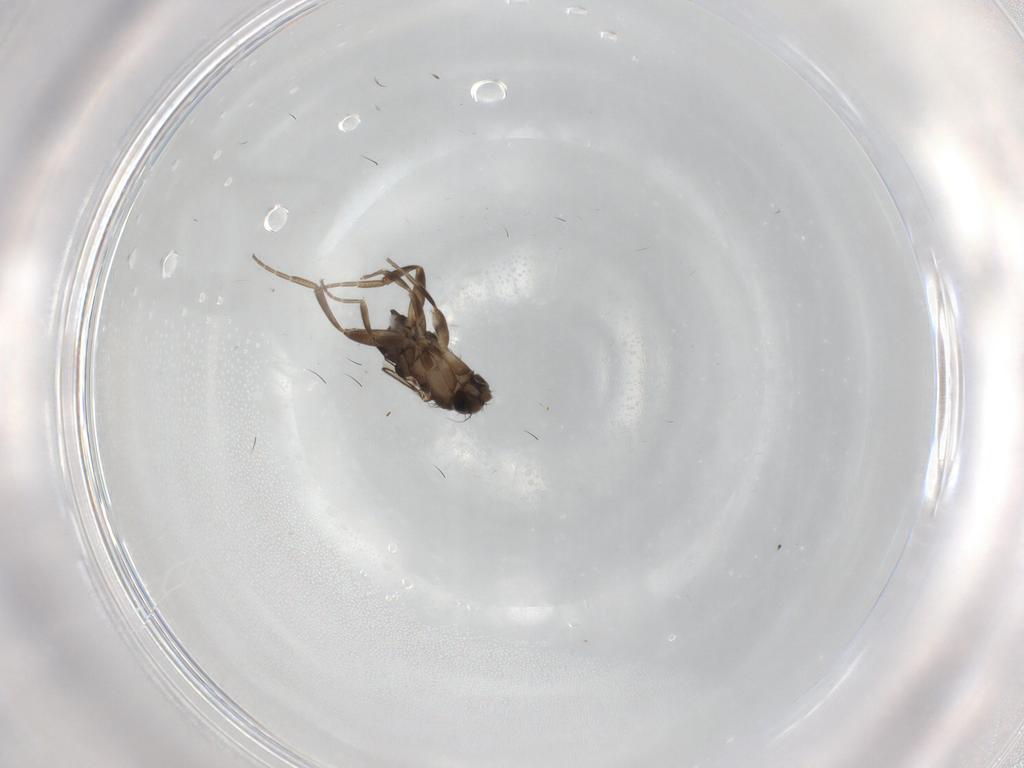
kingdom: Animalia
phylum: Arthropoda
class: Insecta
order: Diptera
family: Phoridae
